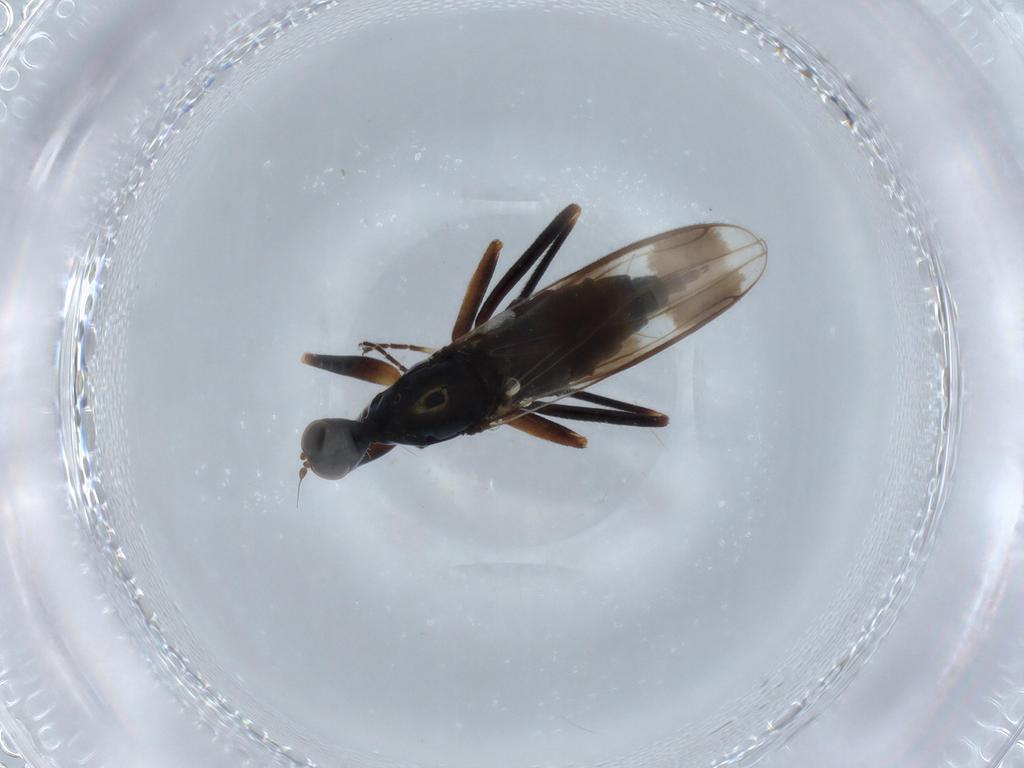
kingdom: Animalia
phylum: Arthropoda
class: Insecta
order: Diptera
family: Hybotidae
